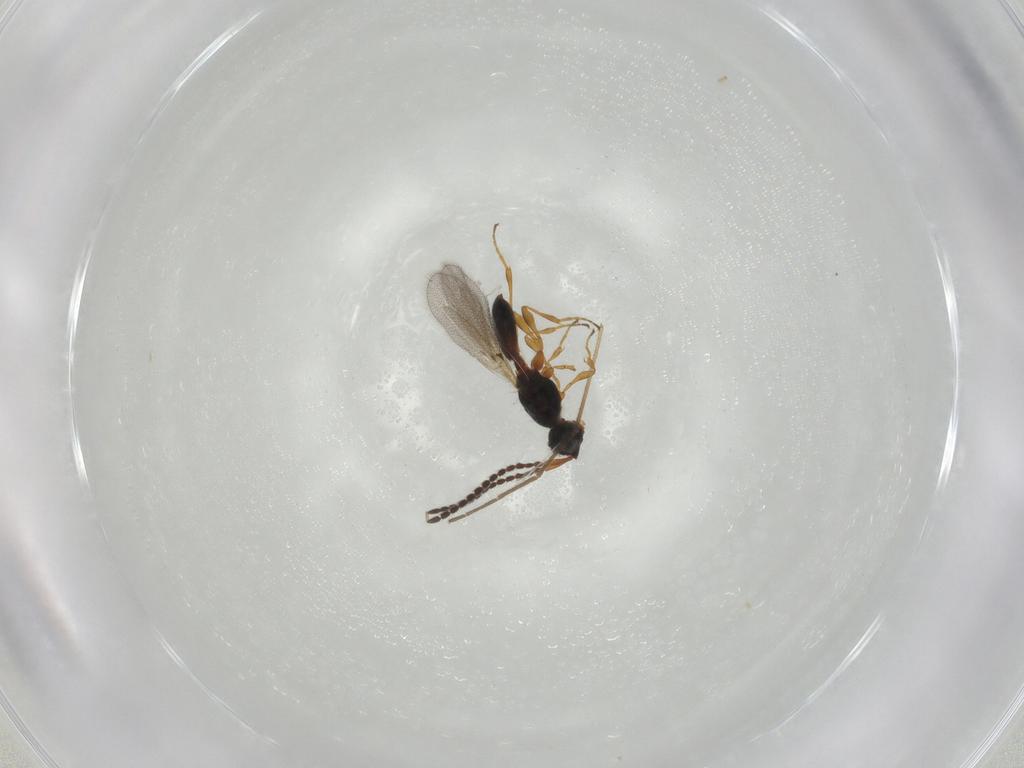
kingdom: Animalia
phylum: Arthropoda
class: Insecta
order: Hymenoptera
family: Diapriidae
